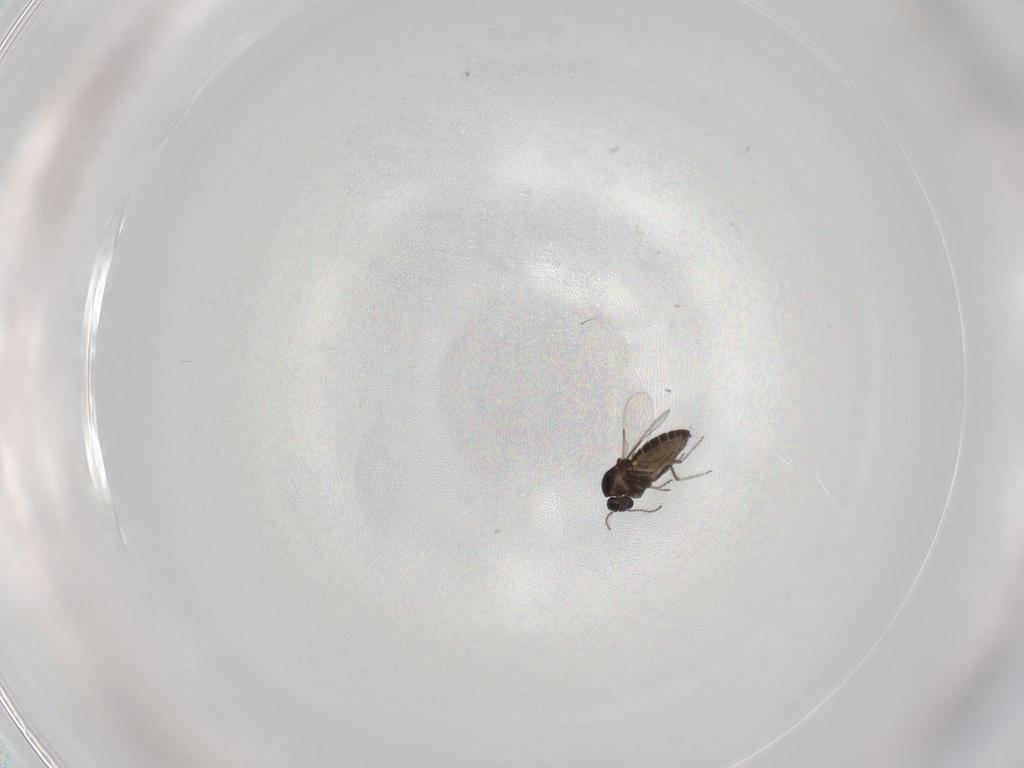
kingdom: Animalia
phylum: Arthropoda
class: Insecta
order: Diptera
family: Ceratopogonidae
